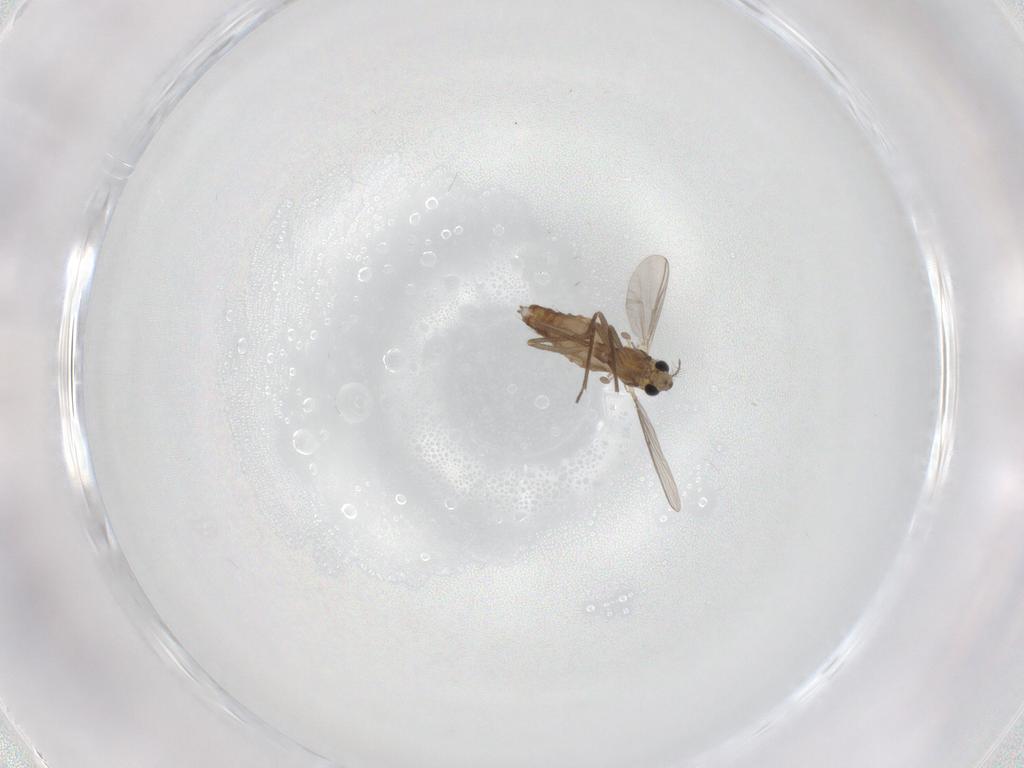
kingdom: Animalia
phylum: Arthropoda
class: Insecta
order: Diptera
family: Chironomidae
